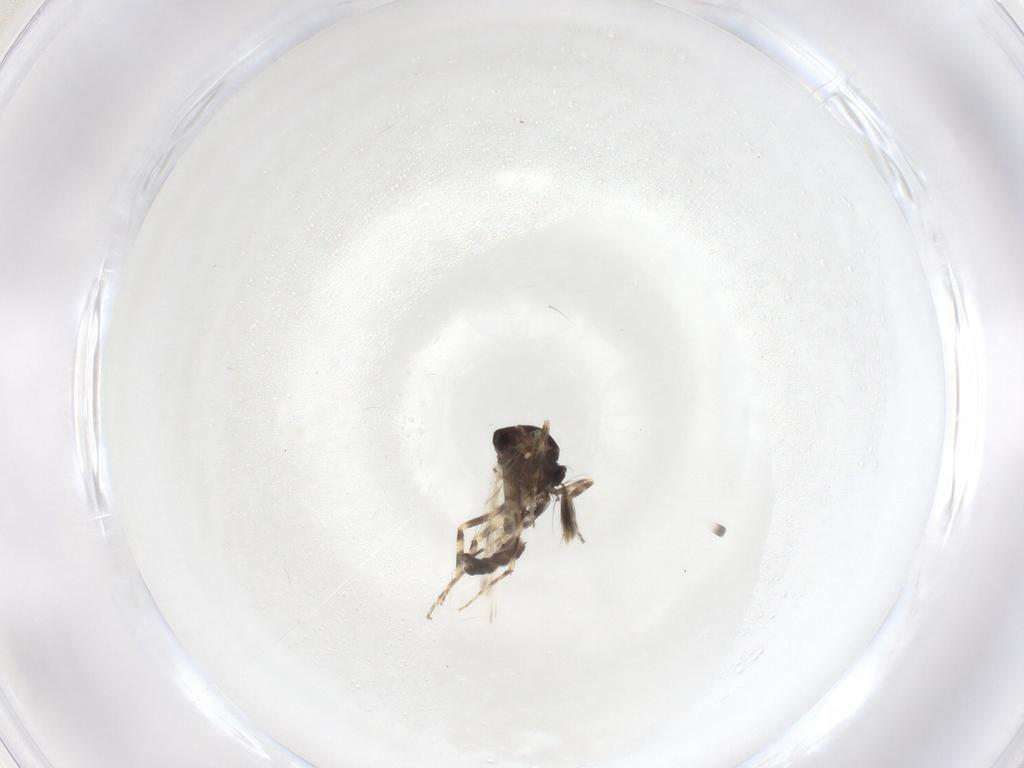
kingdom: Animalia
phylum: Arthropoda
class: Insecta
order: Diptera
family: Ceratopogonidae
